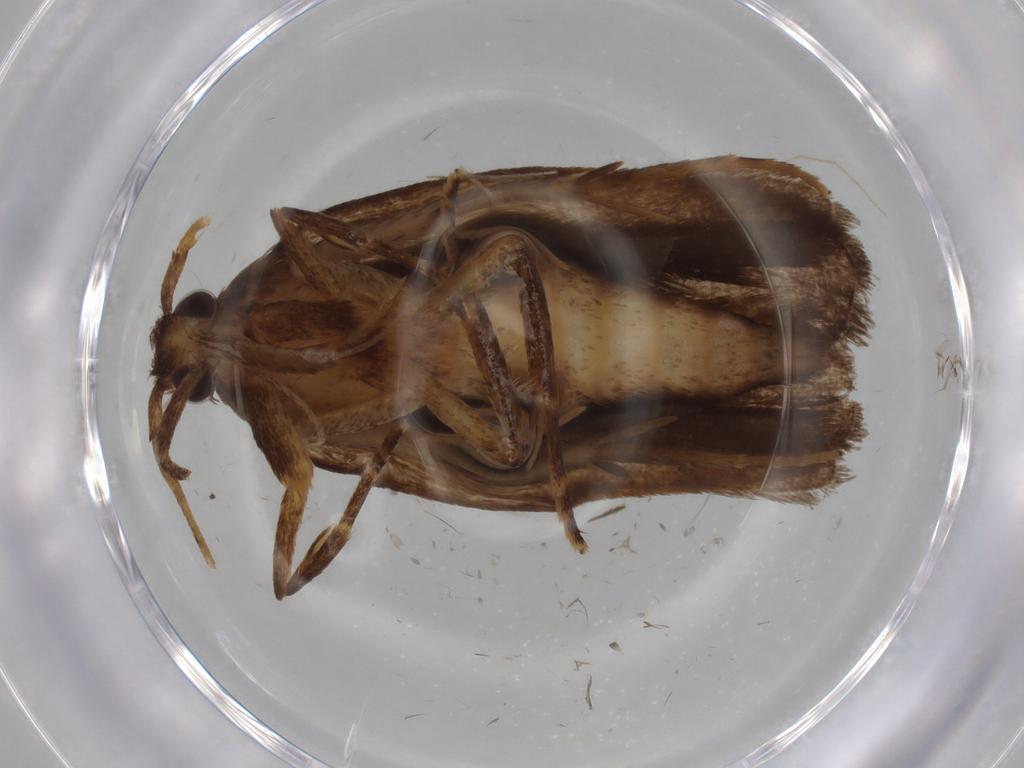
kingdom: Animalia
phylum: Arthropoda
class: Insecta
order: Lepidoptera
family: Autostichidae
